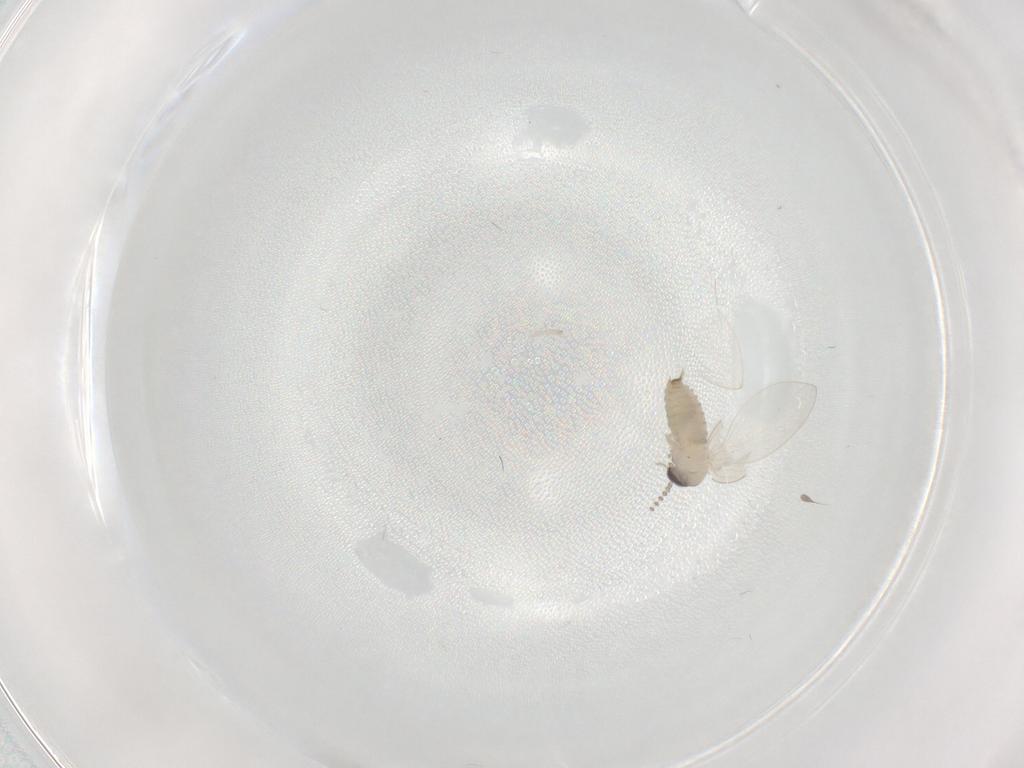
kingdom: Animalia
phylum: Arthropoda
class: Insecta
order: Diptera
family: Psychodidae
